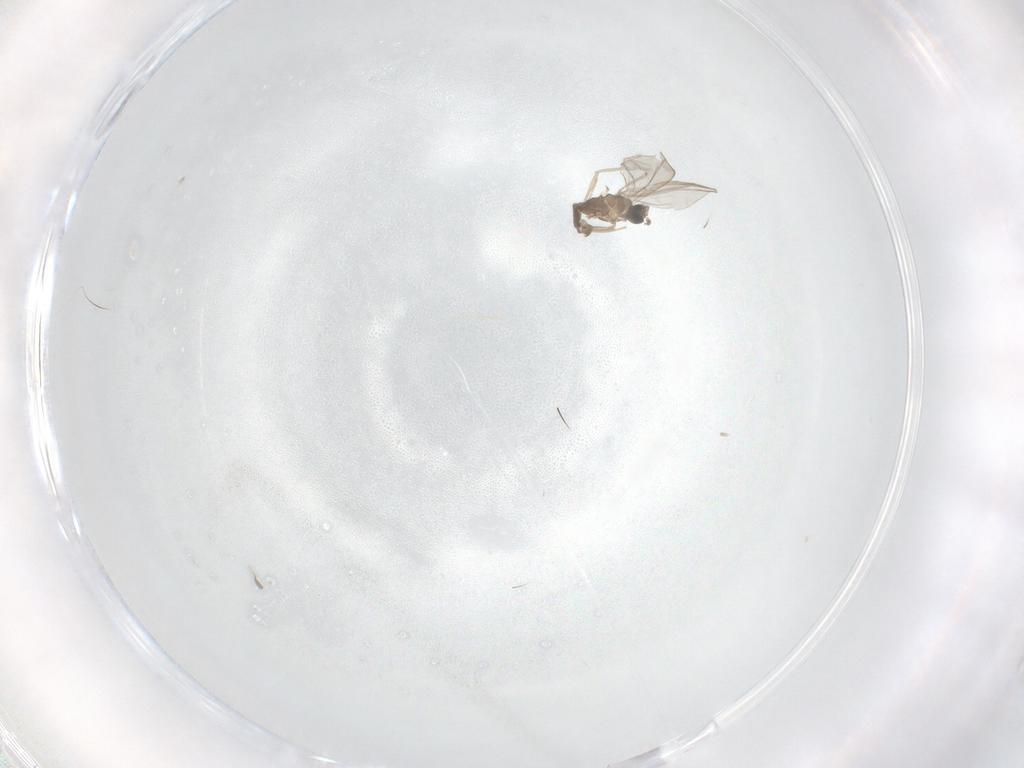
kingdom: Animalia
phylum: Arthropoda
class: Insecta
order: Diptera
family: Cecidomyiidae
